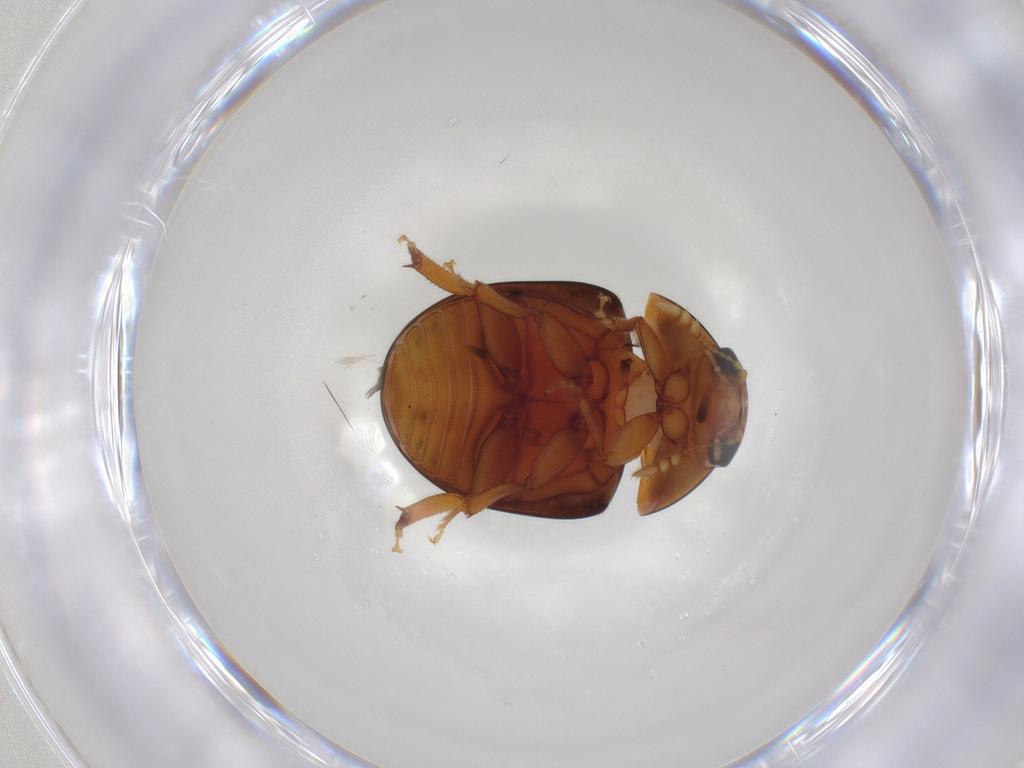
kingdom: Animalia
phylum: Arthropoda
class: Insecta
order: Coleoptera
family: Phalacridae
